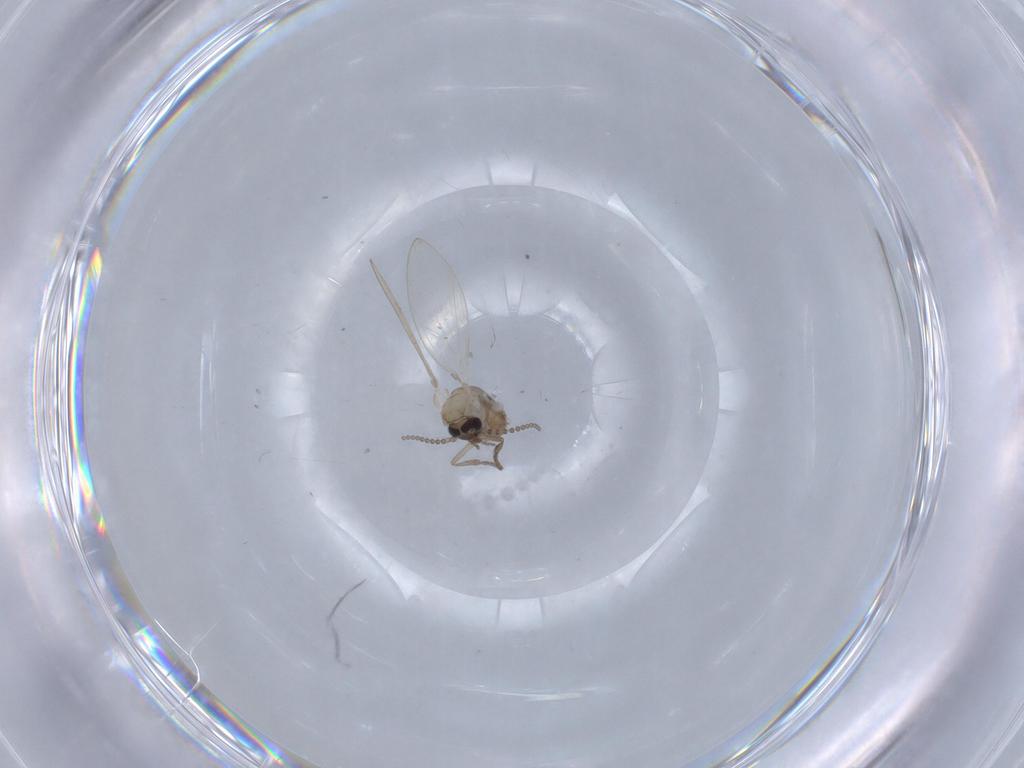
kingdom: Animalia
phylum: Arthropoda
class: Insecta
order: Diptera
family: Psychodidae
